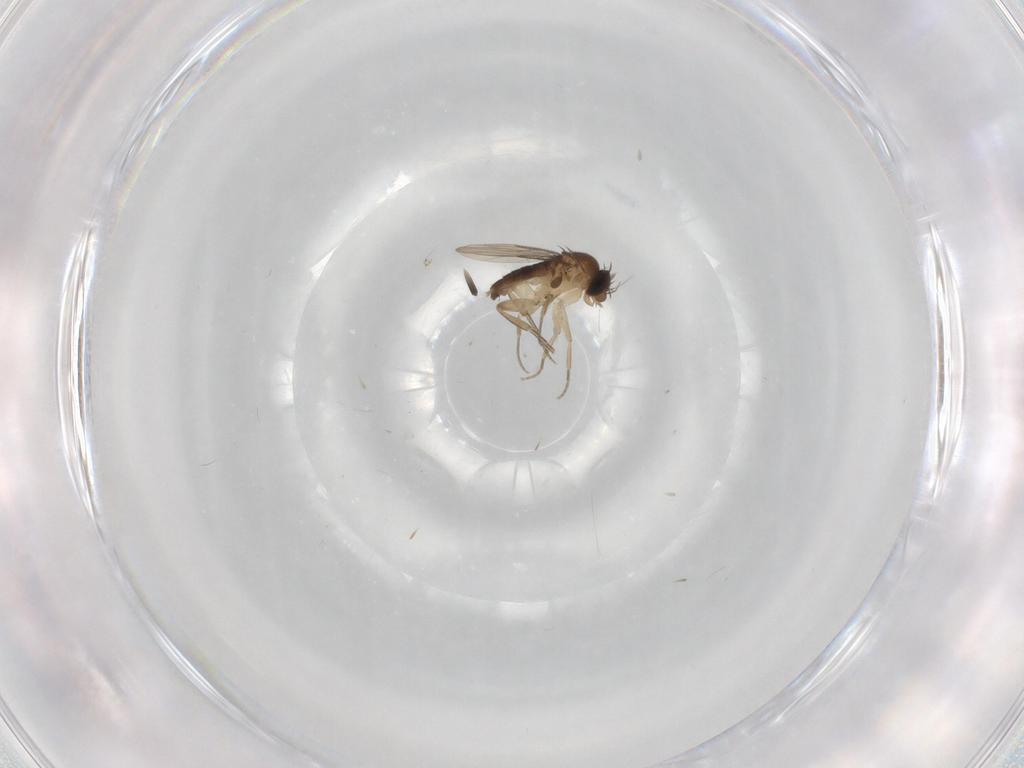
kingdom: Animalia
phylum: Arthropoda
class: Insecta
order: Diptera
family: Phoridae
